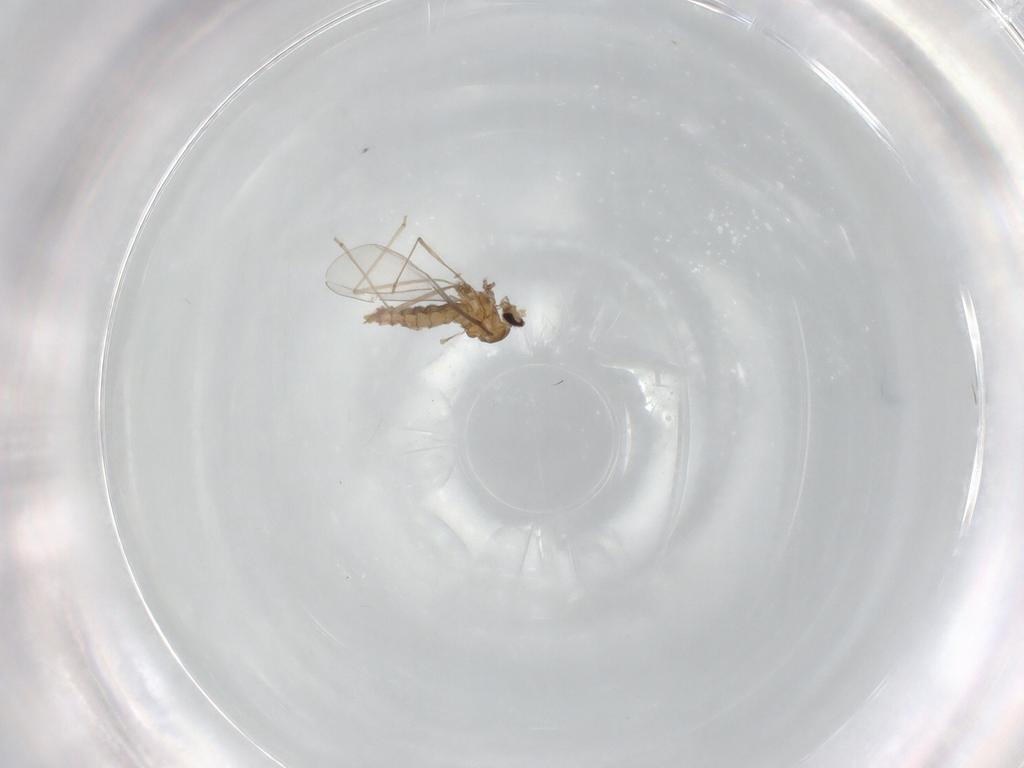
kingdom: Animalia
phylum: Arthropoda
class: Insecta
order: Diptera
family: Cecidomyiidae
